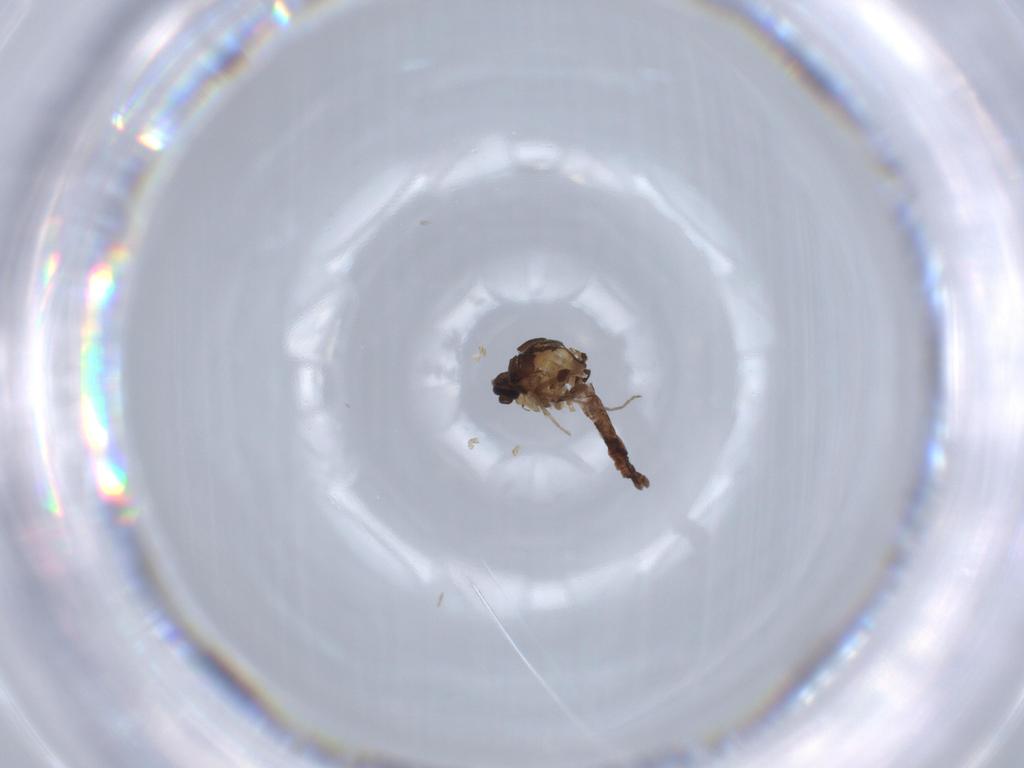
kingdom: Animalia
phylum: Arthropoda
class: Insecta
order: Diptera
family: Ceratopogonidae
